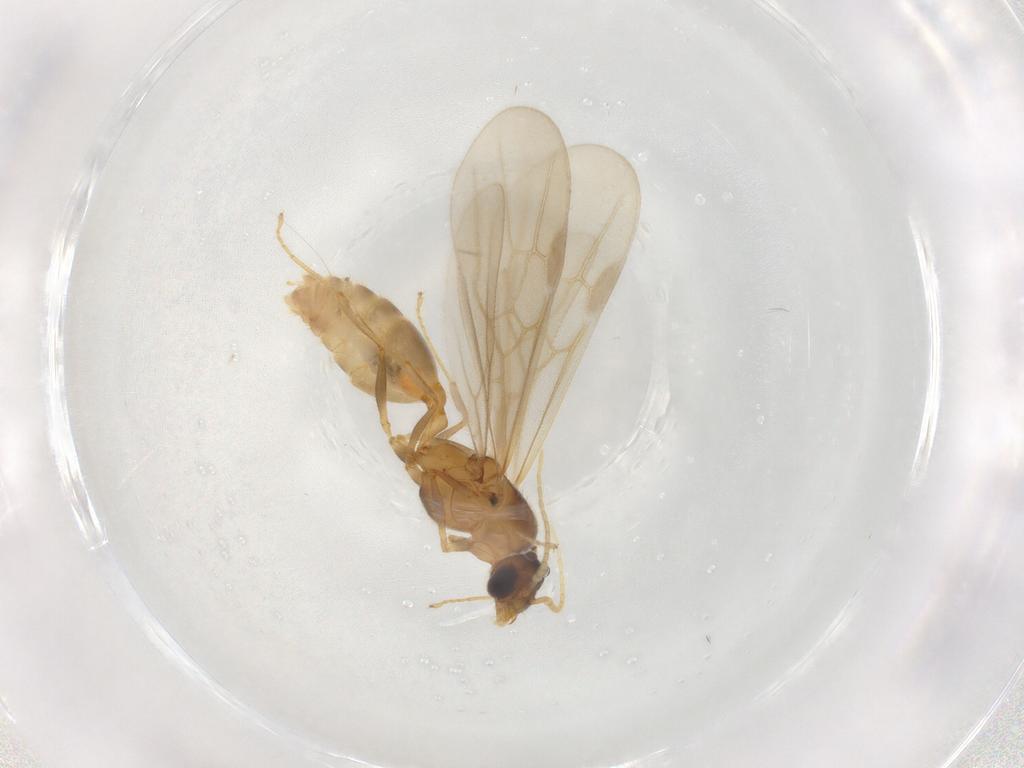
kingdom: Animalia
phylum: Arthropoda
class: Insecta
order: Hymenoptera
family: Formicidae
